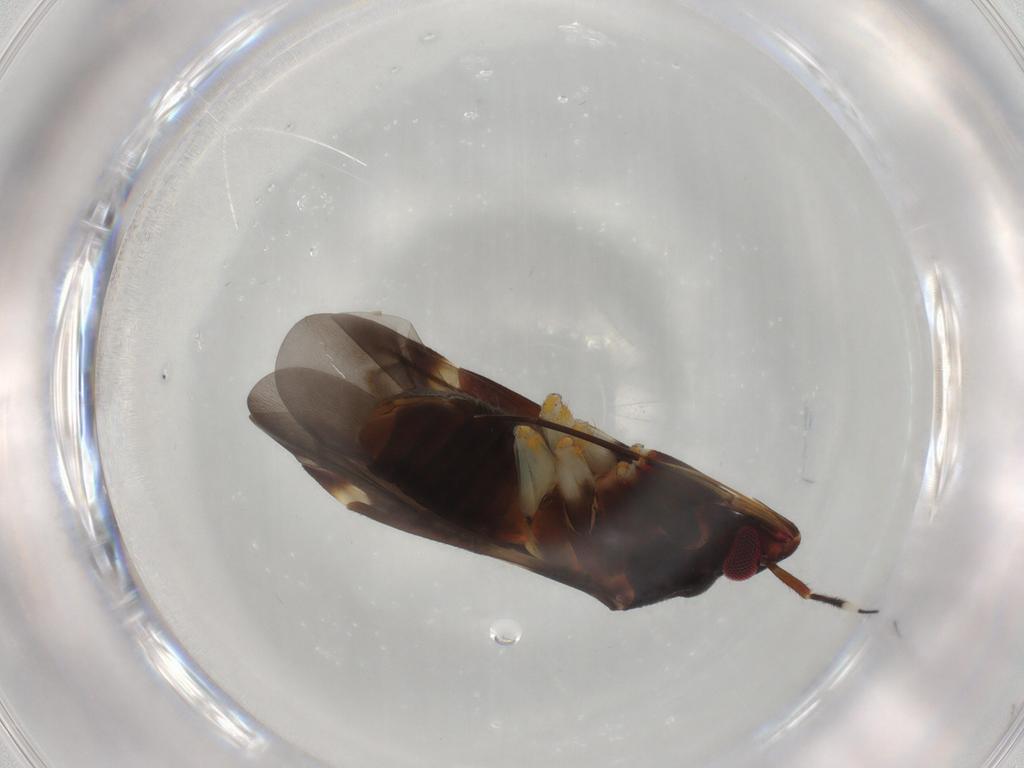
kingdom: Animalia
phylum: Arthropoda
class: Insecta
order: Hemiptera
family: Miridae
